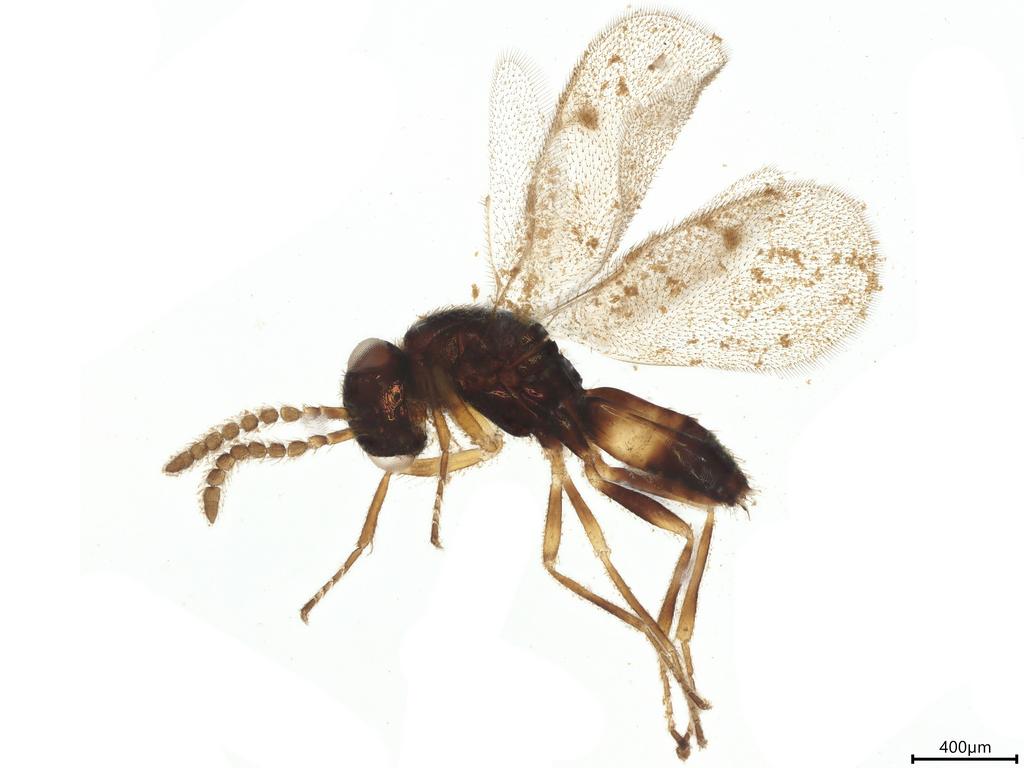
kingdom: Animalia
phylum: Arthropoda
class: Insecta
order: Hymenoptera
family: Pirenidae
